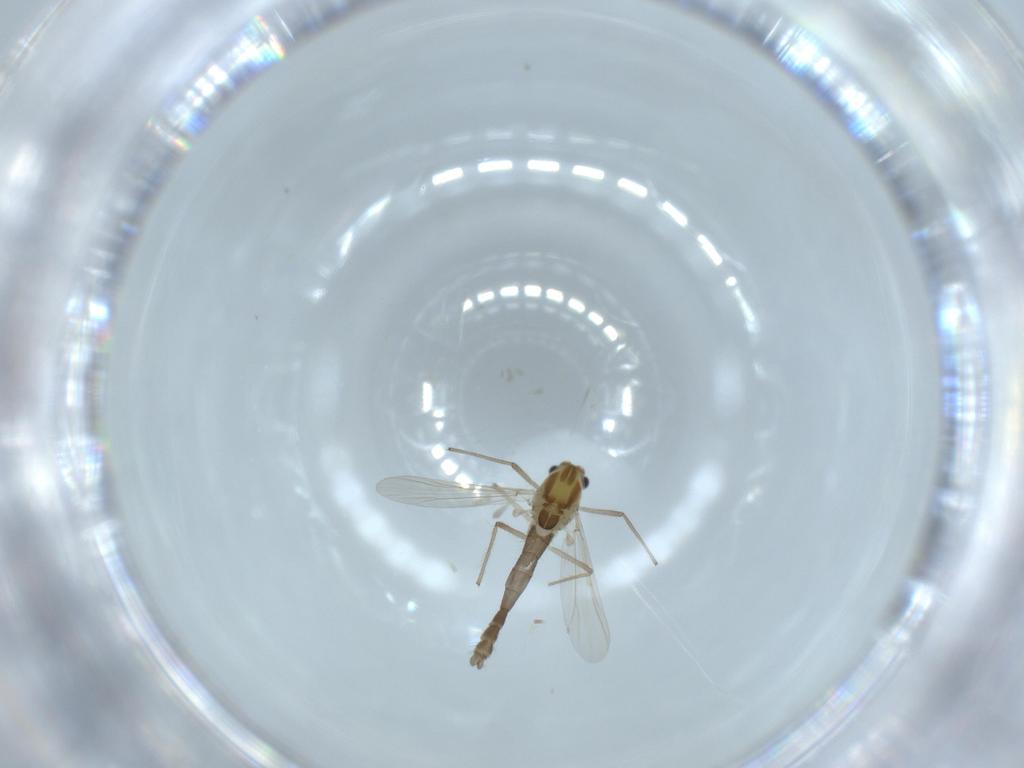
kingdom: Animalia
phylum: Arthropoda
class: Insecta
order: Diptera
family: Chironomidae
